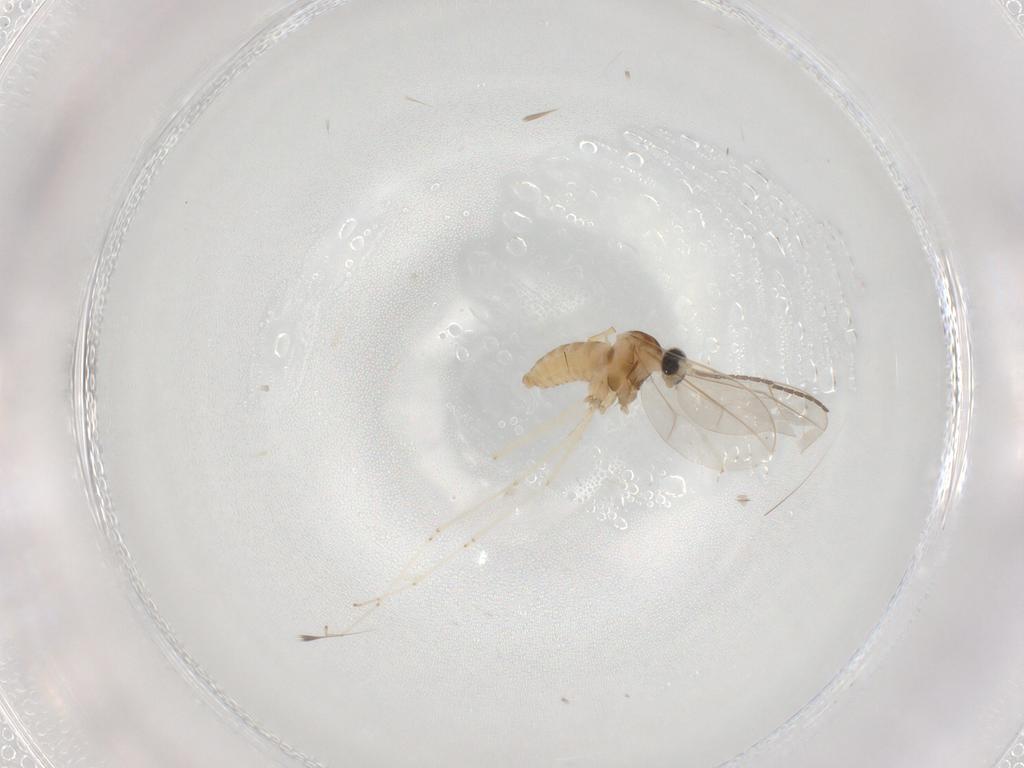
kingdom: Animalia
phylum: Arthropoda
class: Insecta
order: Diptera
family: Cecidomyiidae
